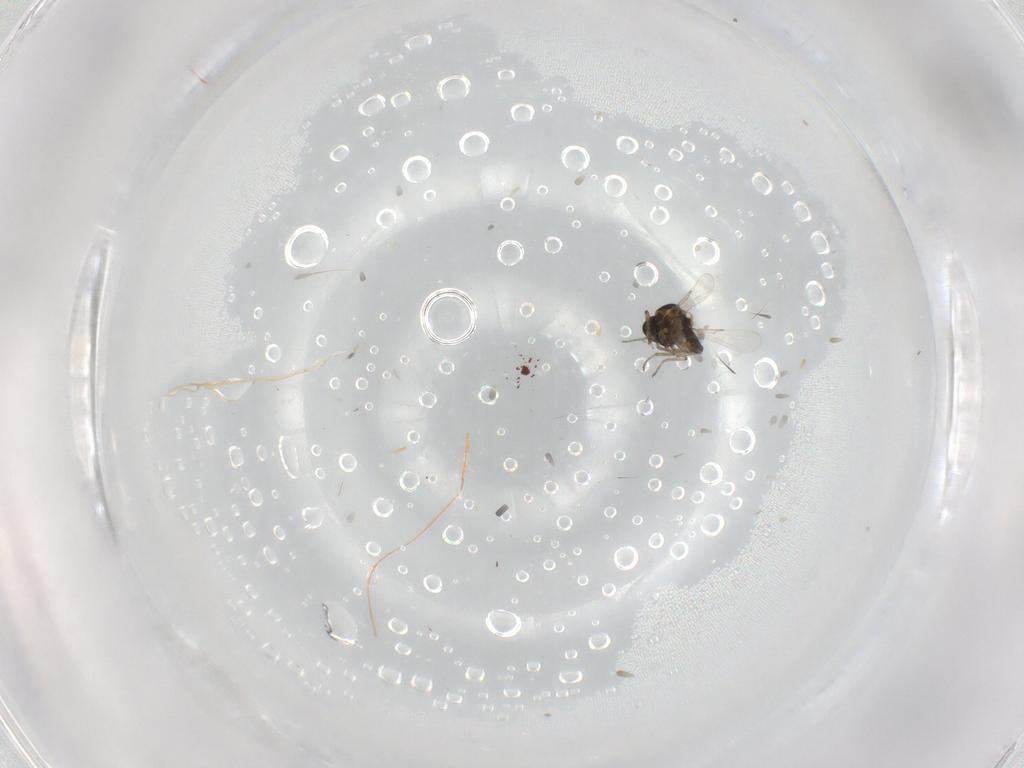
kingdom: Animalia
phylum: Arthropoda
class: Insecta
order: Diptera
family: Ceratopogonidae
